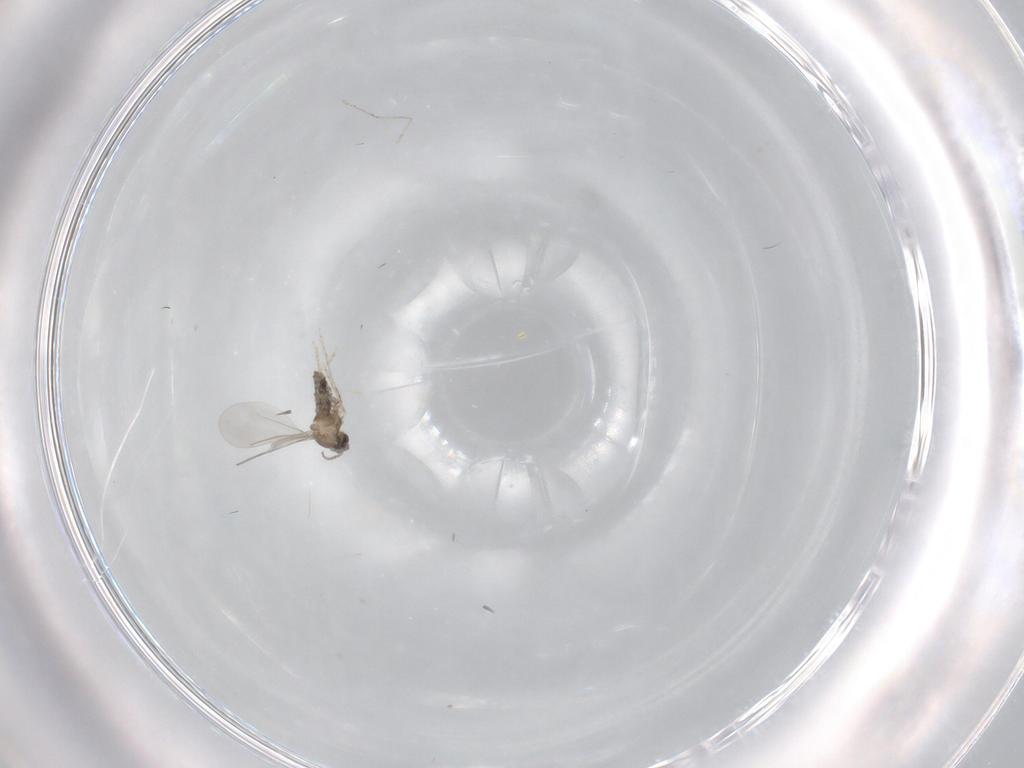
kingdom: Animalia
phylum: Arthropoda
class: Insecta
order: Diptera
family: Cecidomyiidae
